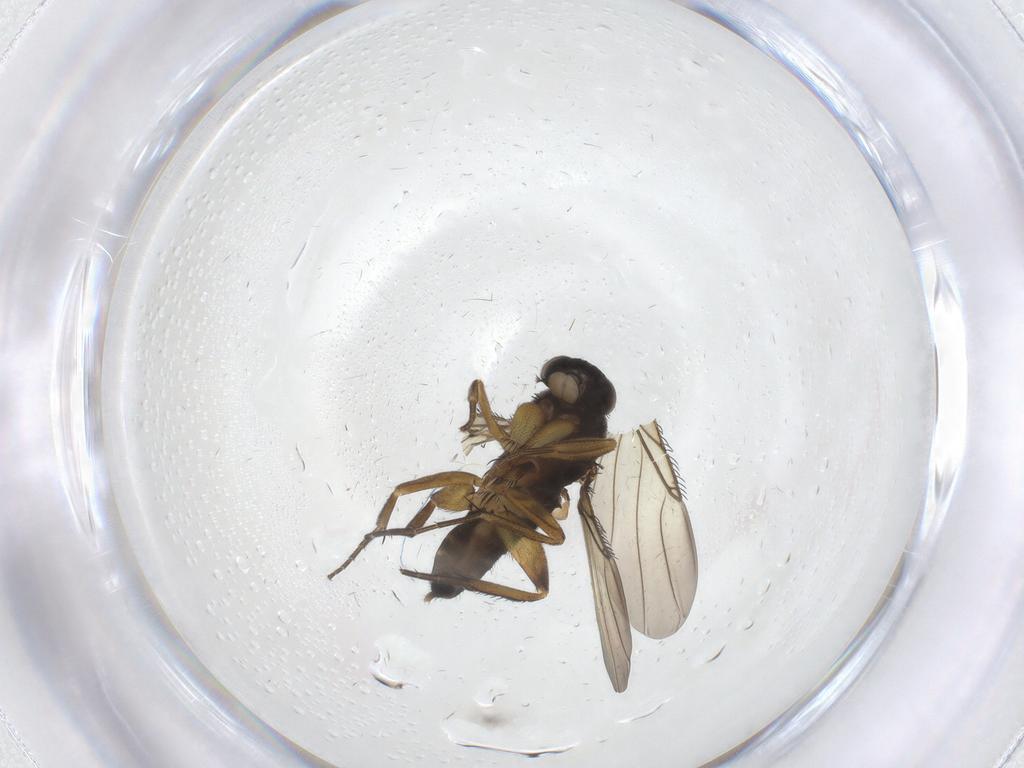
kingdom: Animalia
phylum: Arthropoda
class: Insecta
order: Diptera
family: Phoridae
